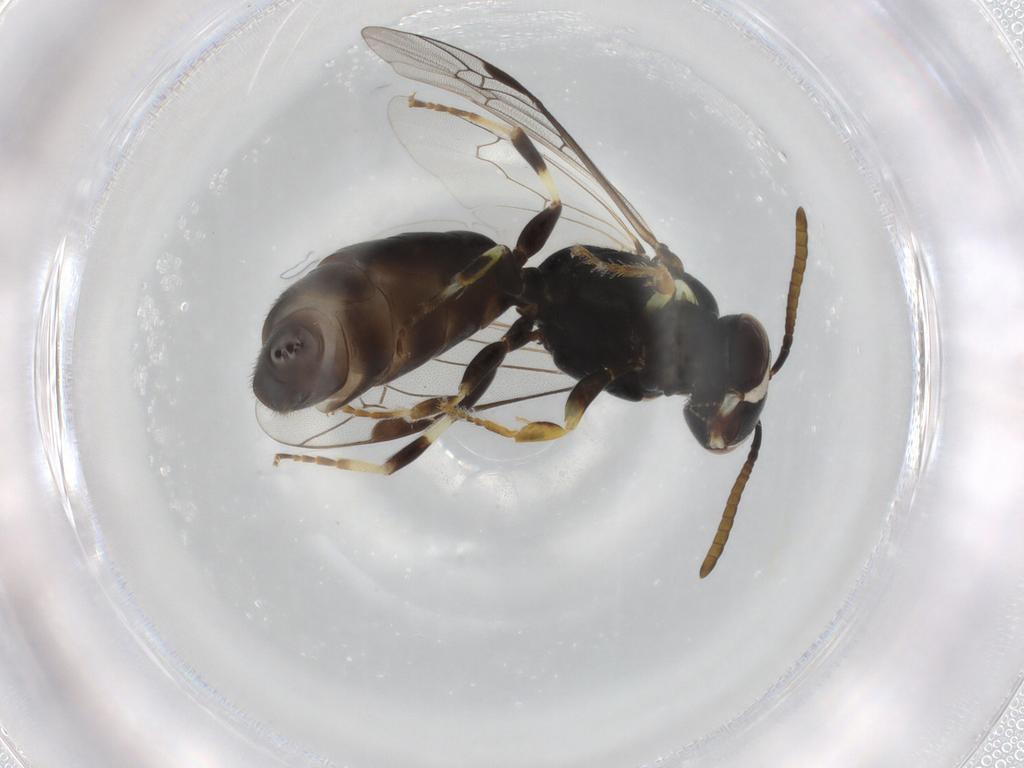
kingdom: Animalia
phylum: Arthropoda
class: Insecta
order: Hymenoptera
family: Colletidae
